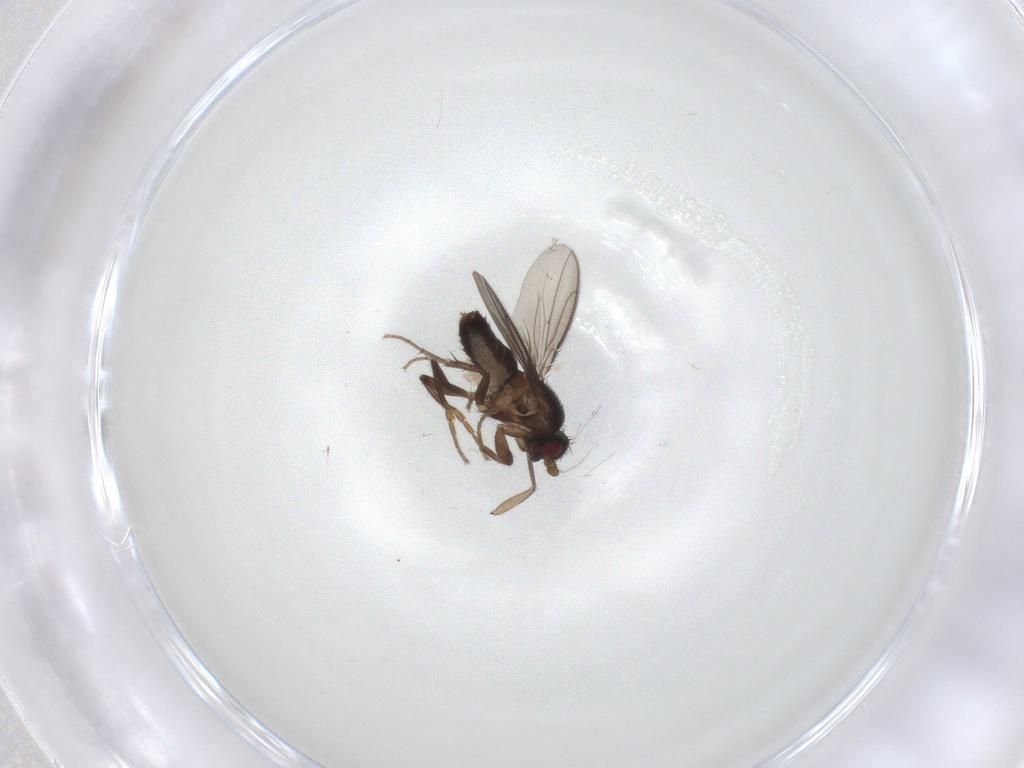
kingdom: Animalia
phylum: Arthropoda
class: Insecta
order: Diptera
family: Sphaeroceridae
